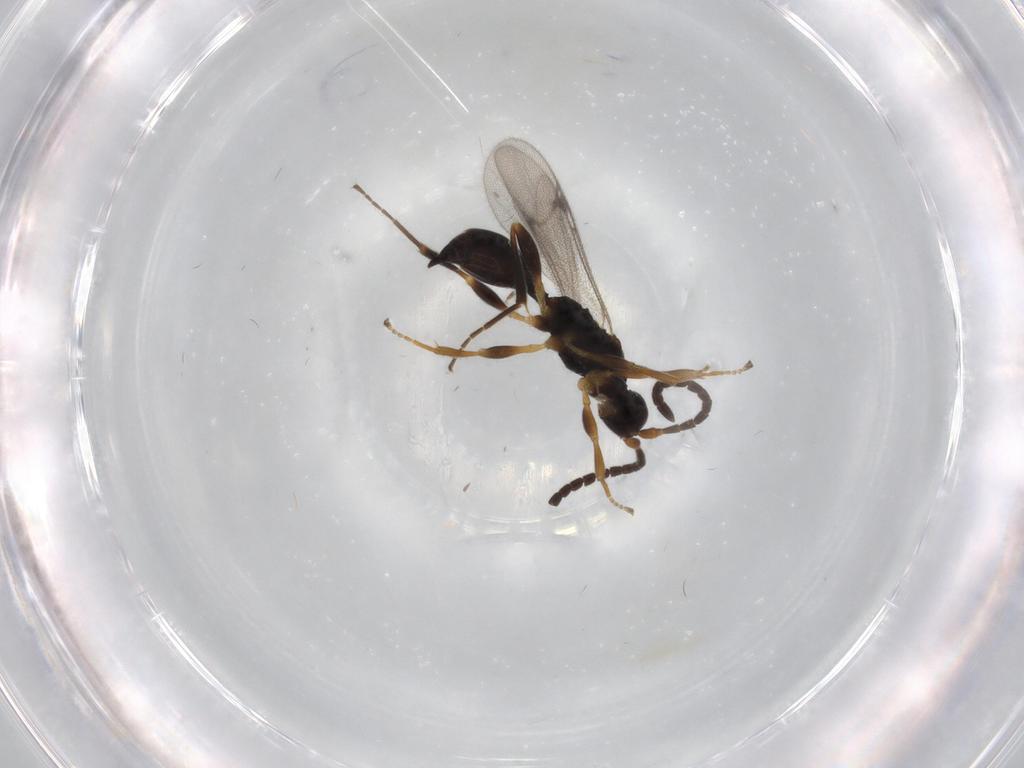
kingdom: Animalia
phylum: Arthropoda
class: Insecta
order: Hymenoptera
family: Proctotrupidae
